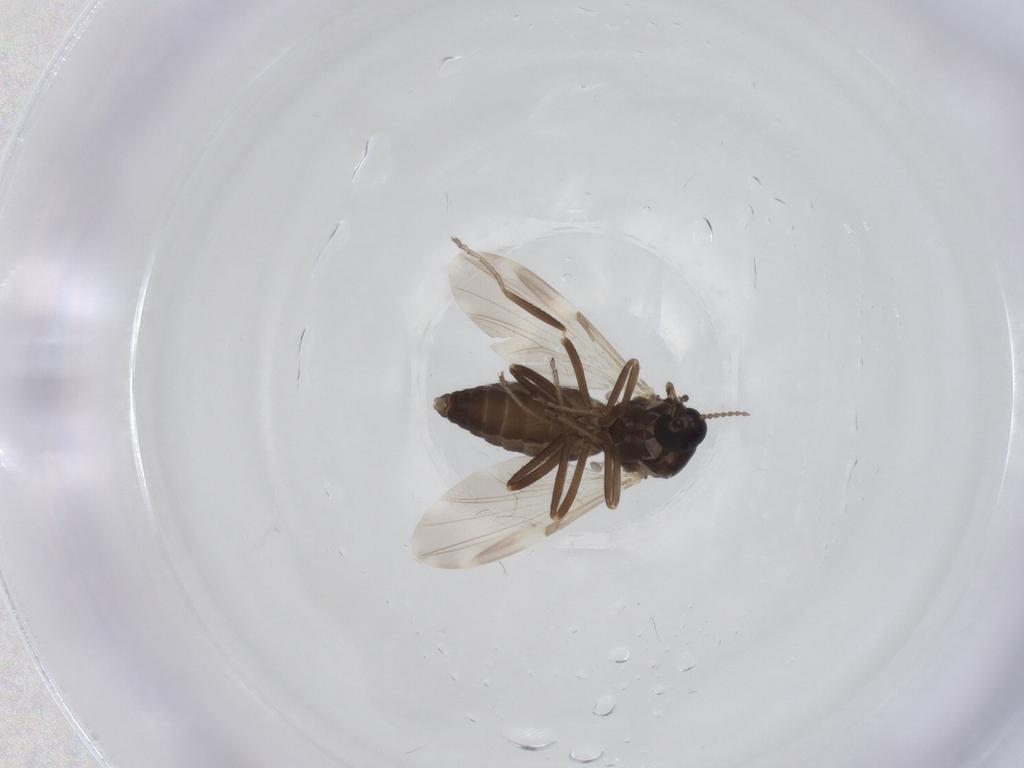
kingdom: Animalia
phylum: Arthropoda
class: Insecta
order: Diptera
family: Ceratopogonidae
